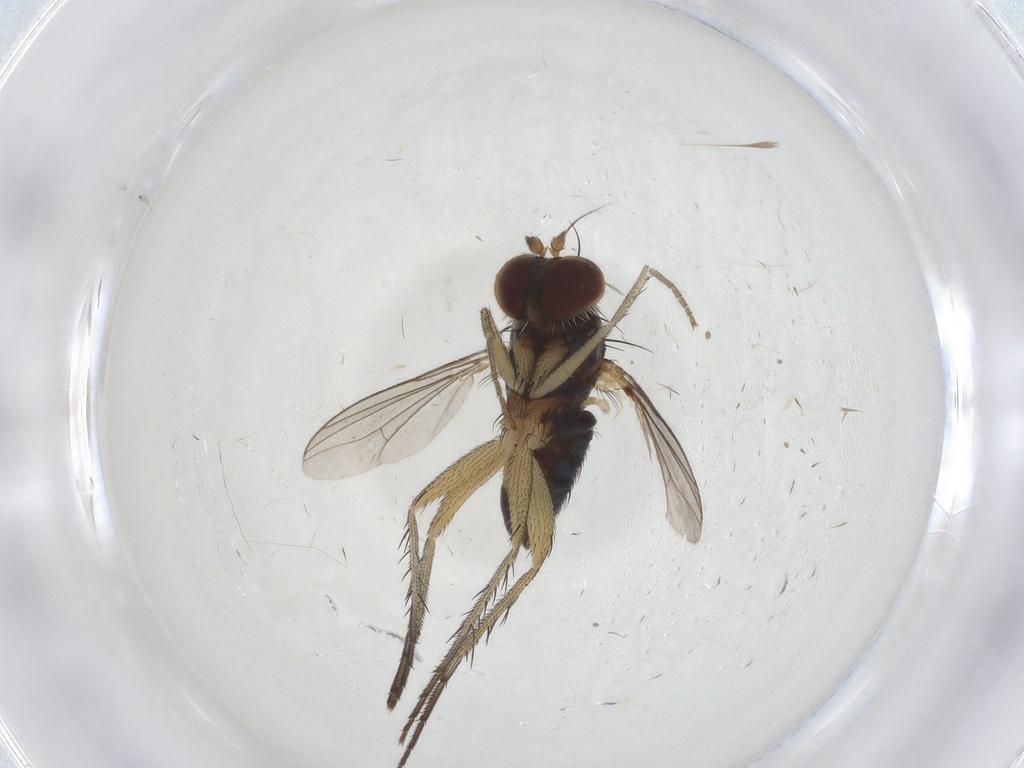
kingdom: Animalia
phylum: Arthropoda
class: Insecta
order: Diptera
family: Dolichopodidae
